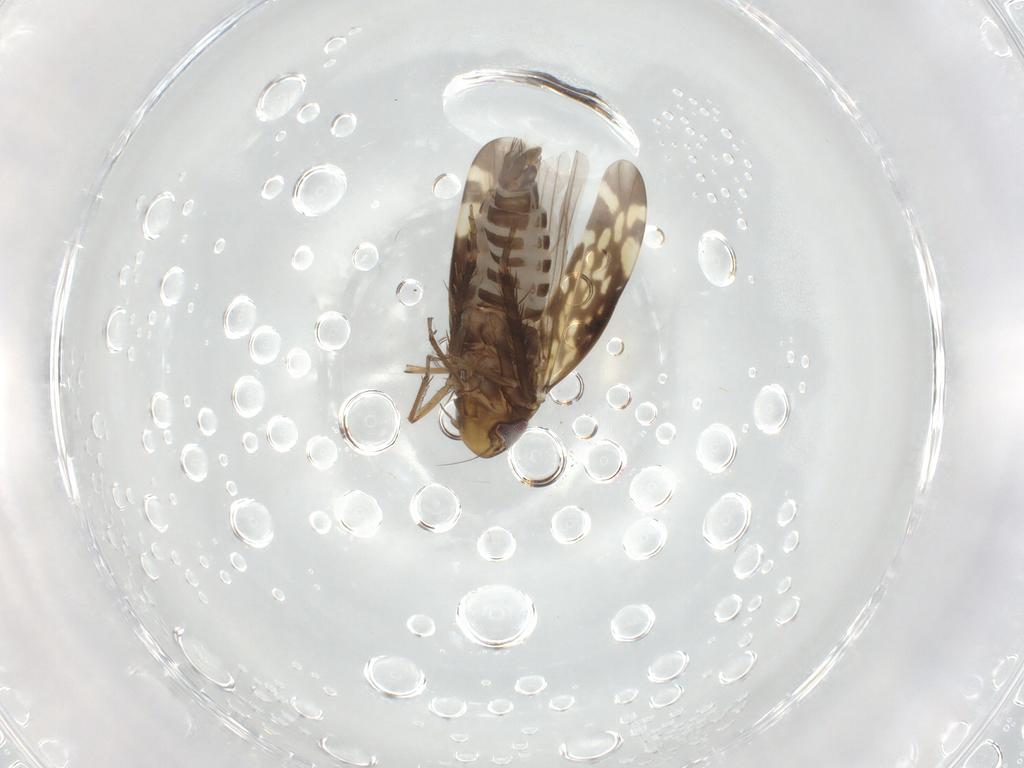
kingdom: Animalia
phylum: Arthropoda
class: Insecta
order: Hemiptera
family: Cicadellidae
